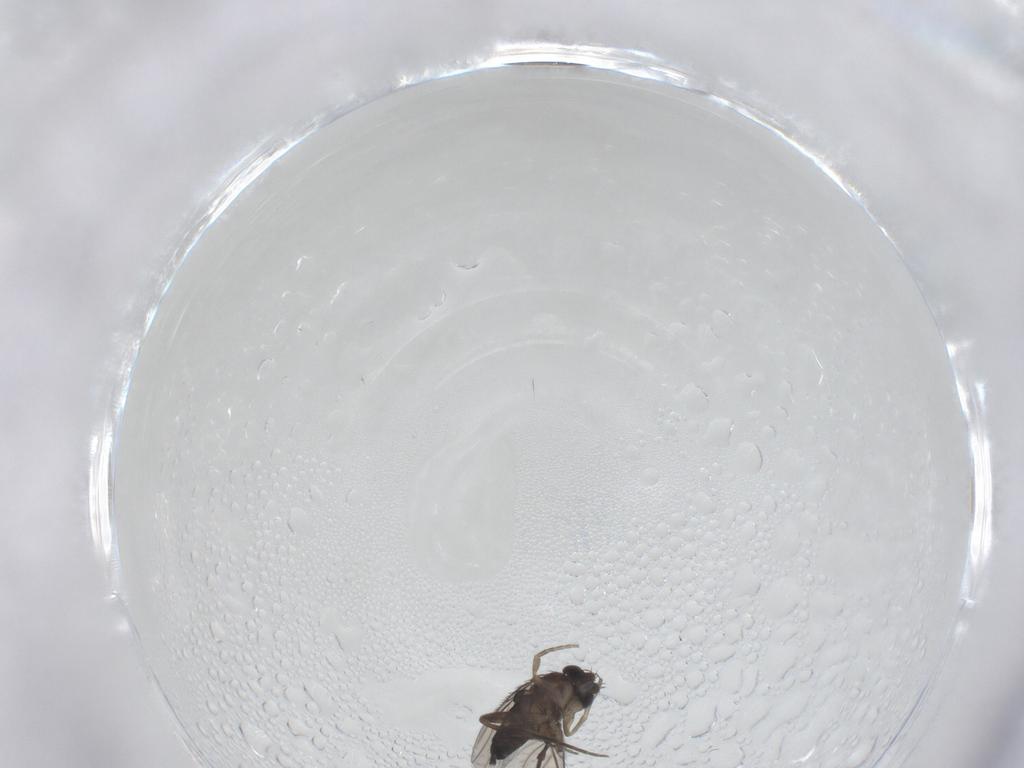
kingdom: Animalia
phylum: Arthropoda
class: Insecta
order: Diptera
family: Phoridae
